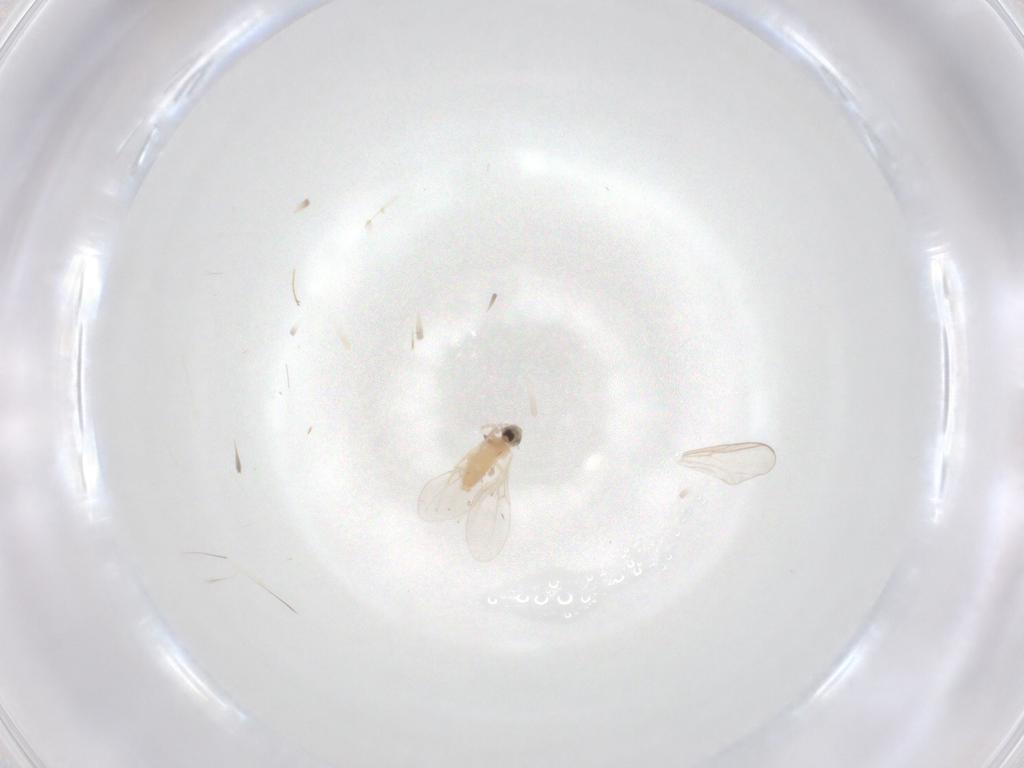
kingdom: Animalia
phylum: Arthropoda
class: Insecta
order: Diptera
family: Cecidomyiidae
